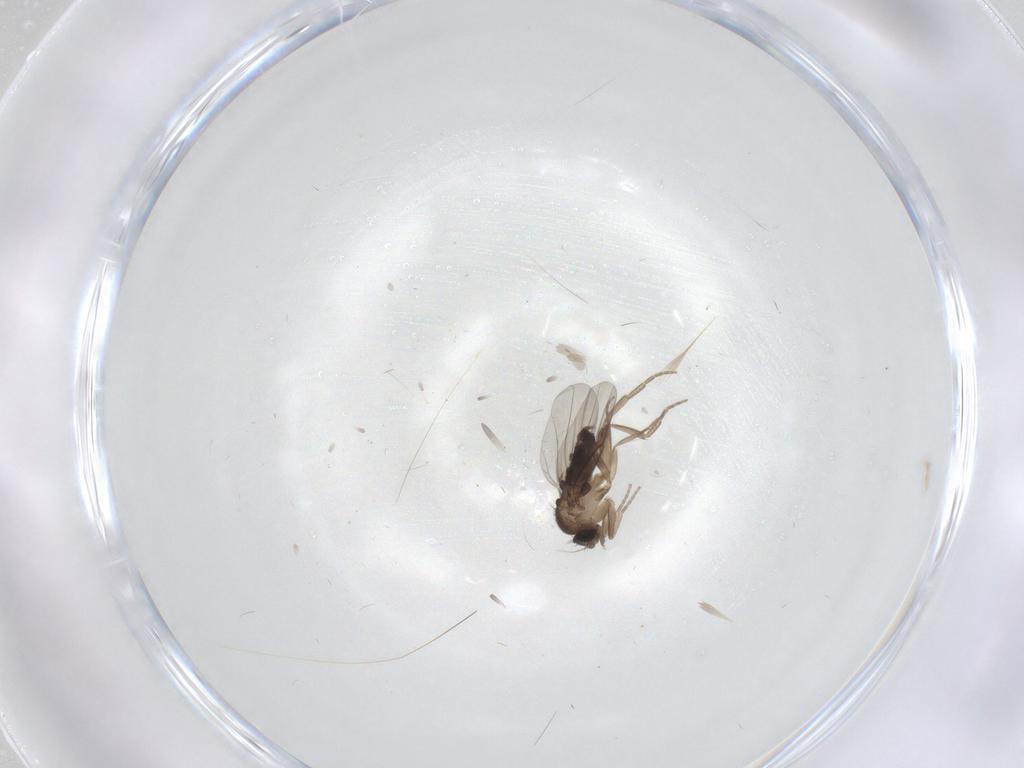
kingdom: Animalia
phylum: Arthropoda
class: Insecta
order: Diptera
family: Phoridae
